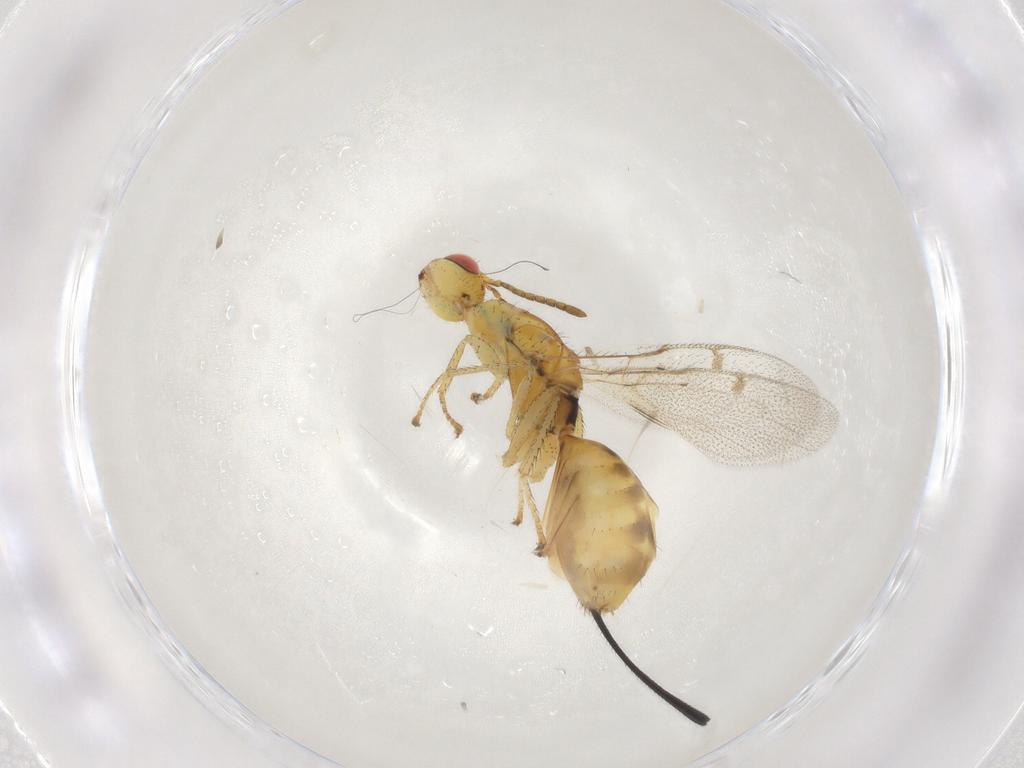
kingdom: Animalia
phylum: Arthropoda
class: Insecta
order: Hymenoptera
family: Megastigmidae
